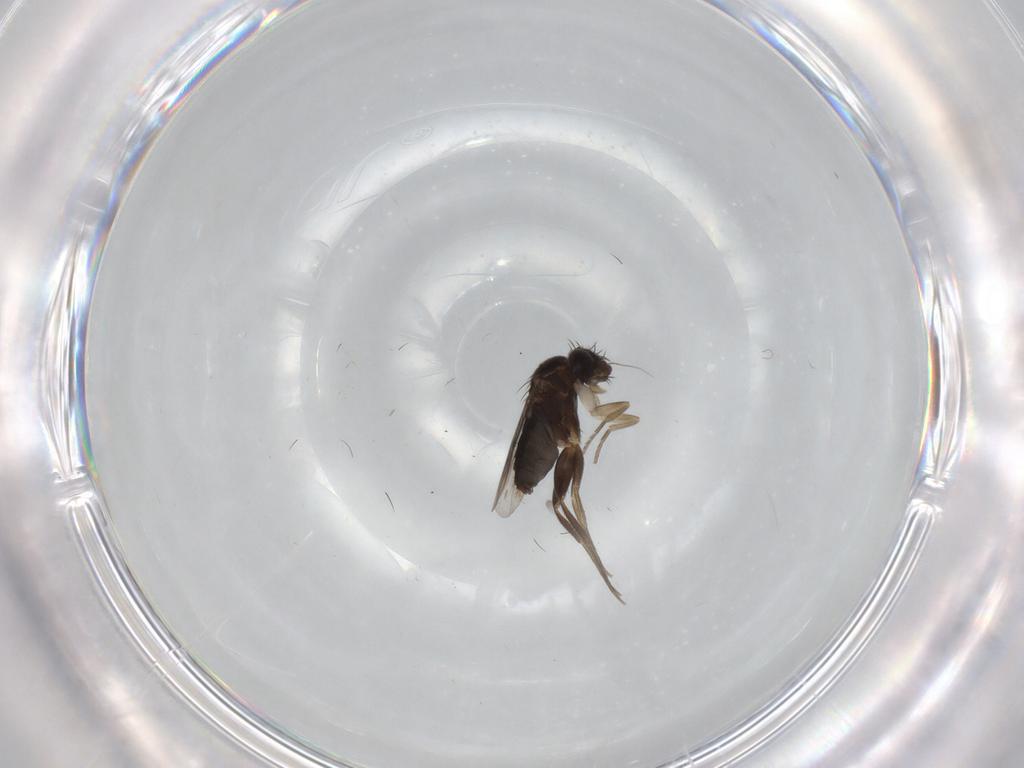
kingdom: Animalia
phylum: Arthropoda
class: Insecta
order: Diptera
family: Phoridae
